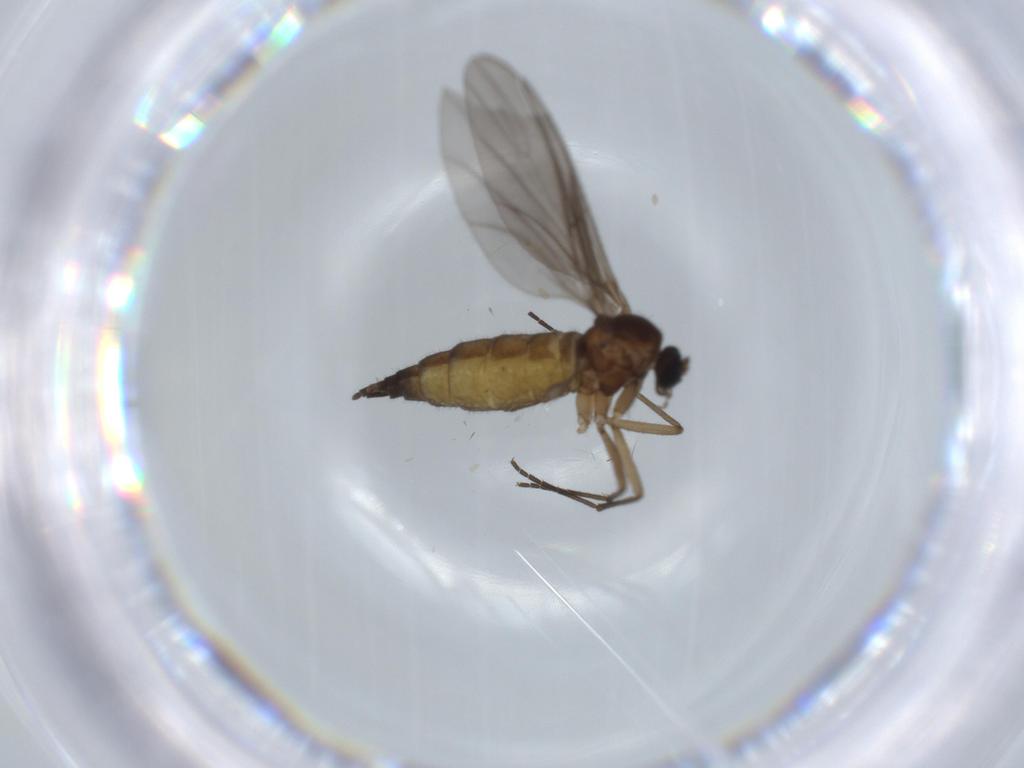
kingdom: Animalia
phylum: Arthropoda
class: Insecta
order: Diptera
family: Sciaridae
